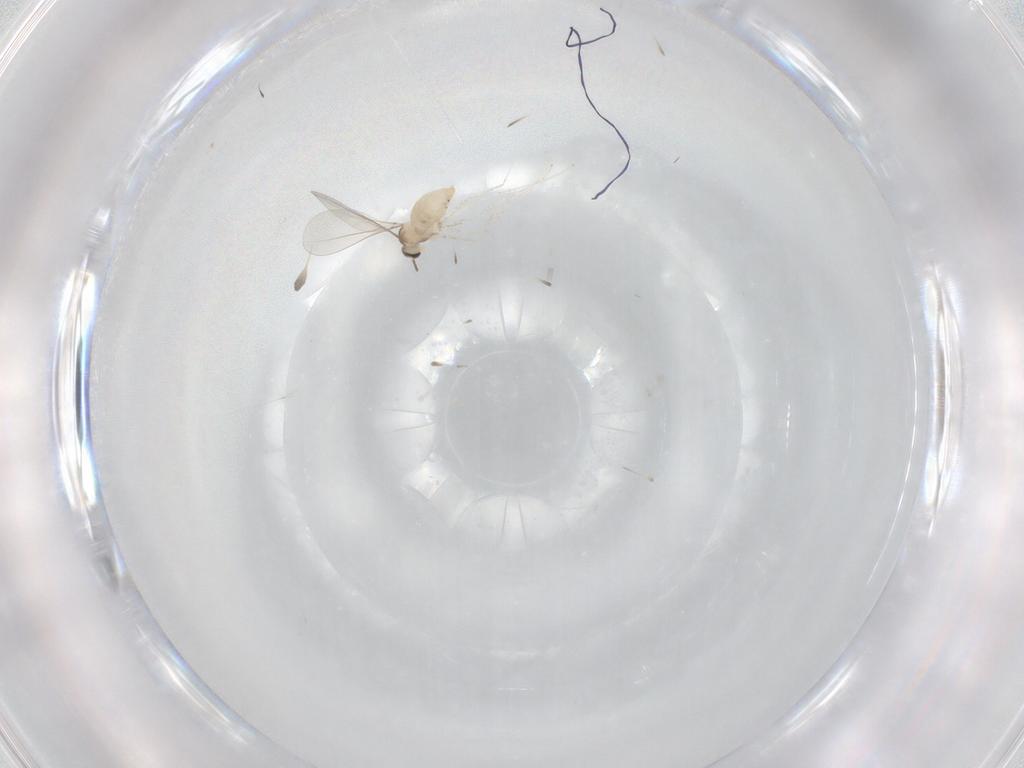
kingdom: Animalia
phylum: Arthropoda
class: Insecta
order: Diptera
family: Cecidomyiidae
